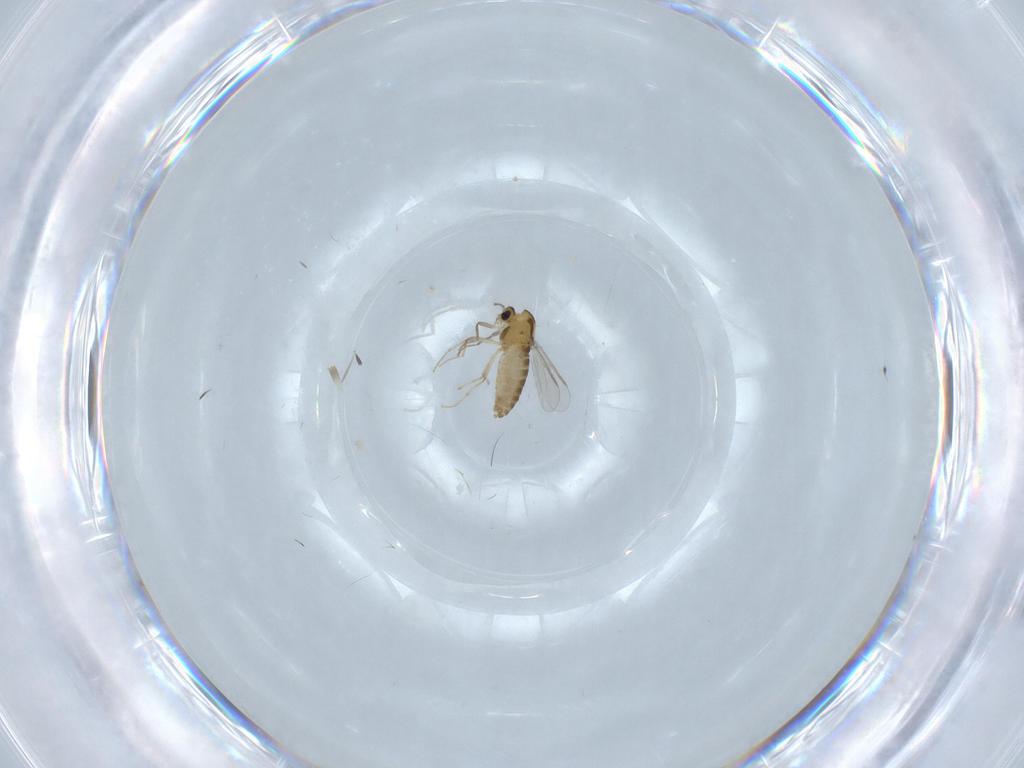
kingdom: Animalia
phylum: Arthropoda
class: Insecta
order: Diptera
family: Chironomidae
